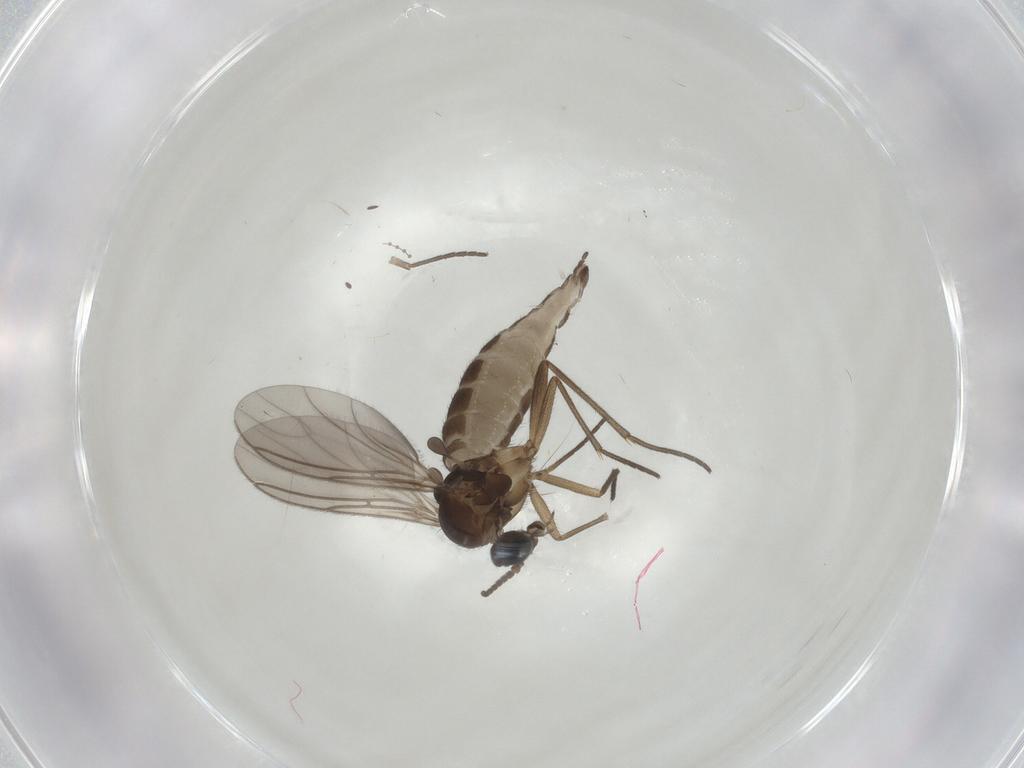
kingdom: Animalia
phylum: Arthropoda
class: Insecta
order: Diptera
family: Sciaridae
